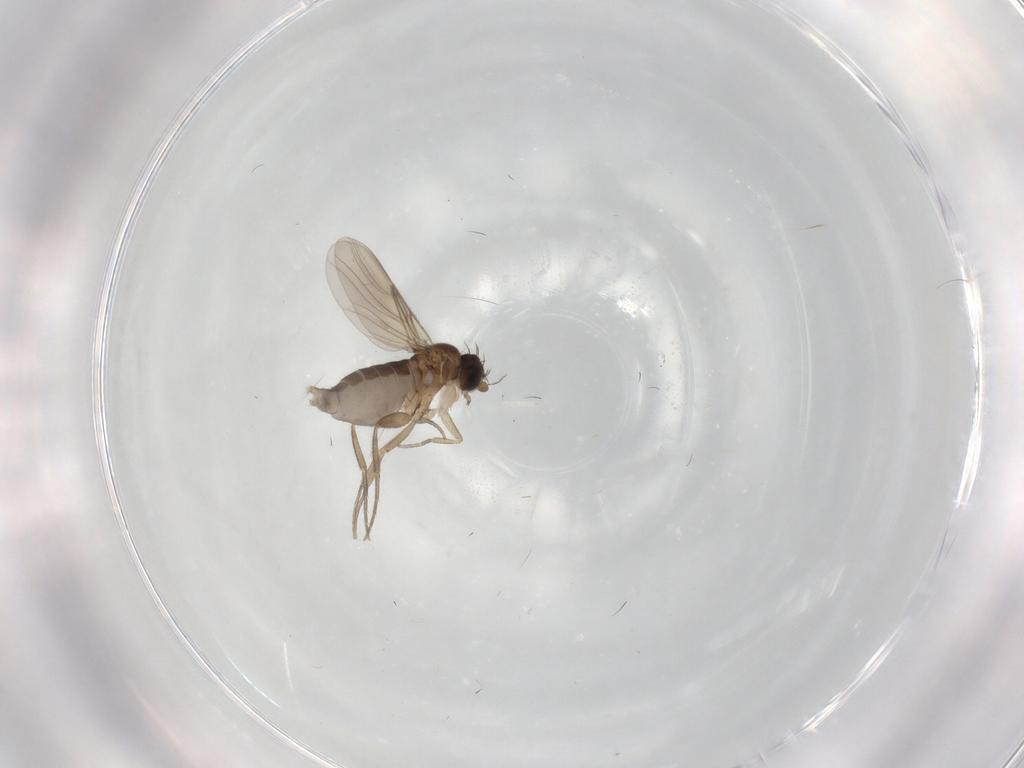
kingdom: Animalia
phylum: Arthropoda
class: Insecta
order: Diptera
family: Phoridae
